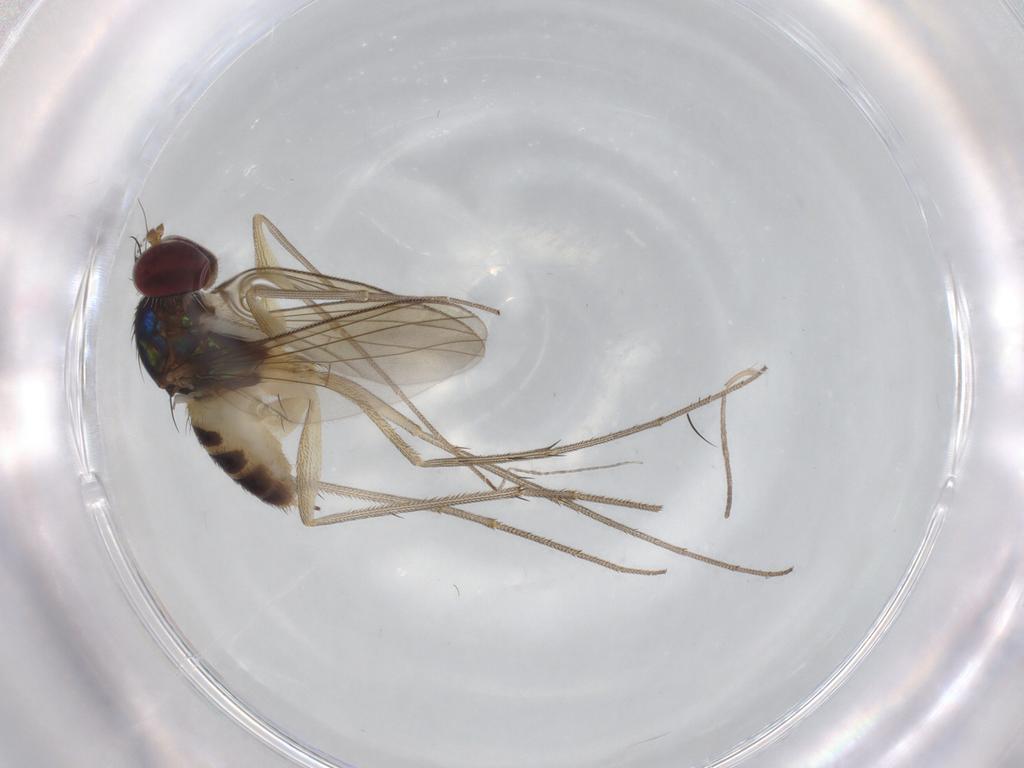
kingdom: Animalia
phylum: Arthropoda
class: Insecta
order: Diptera
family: Dolichopodidae
